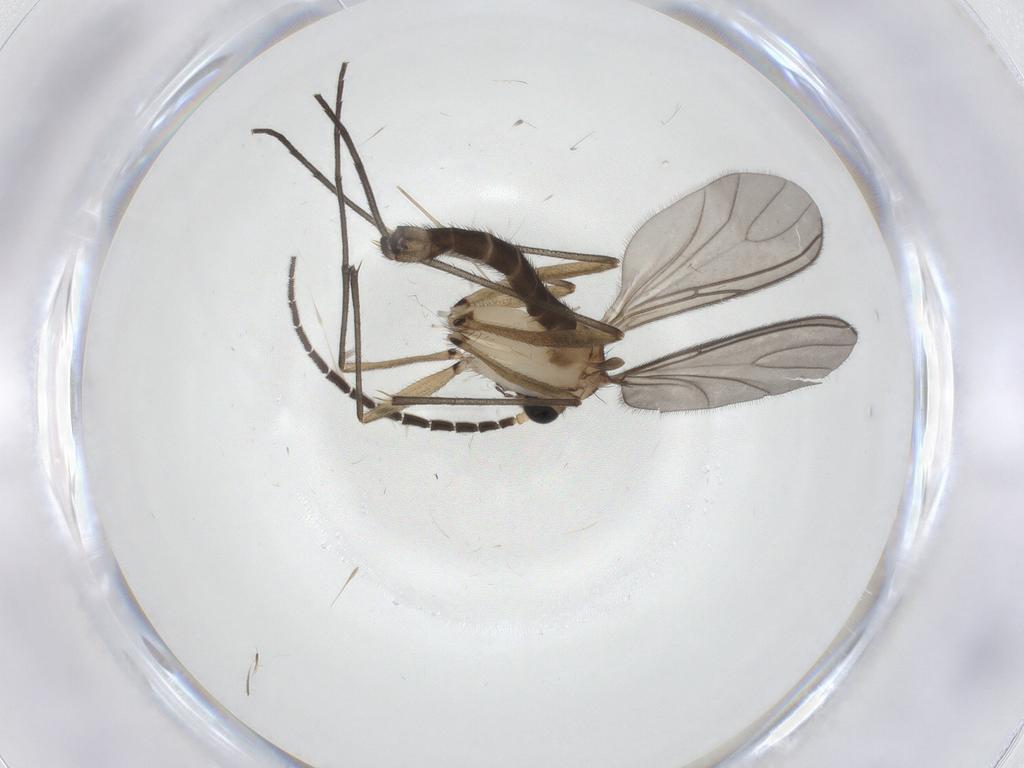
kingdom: Animalia
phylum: Arthropoda
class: Insecta
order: Diptera
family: Sciaridae
